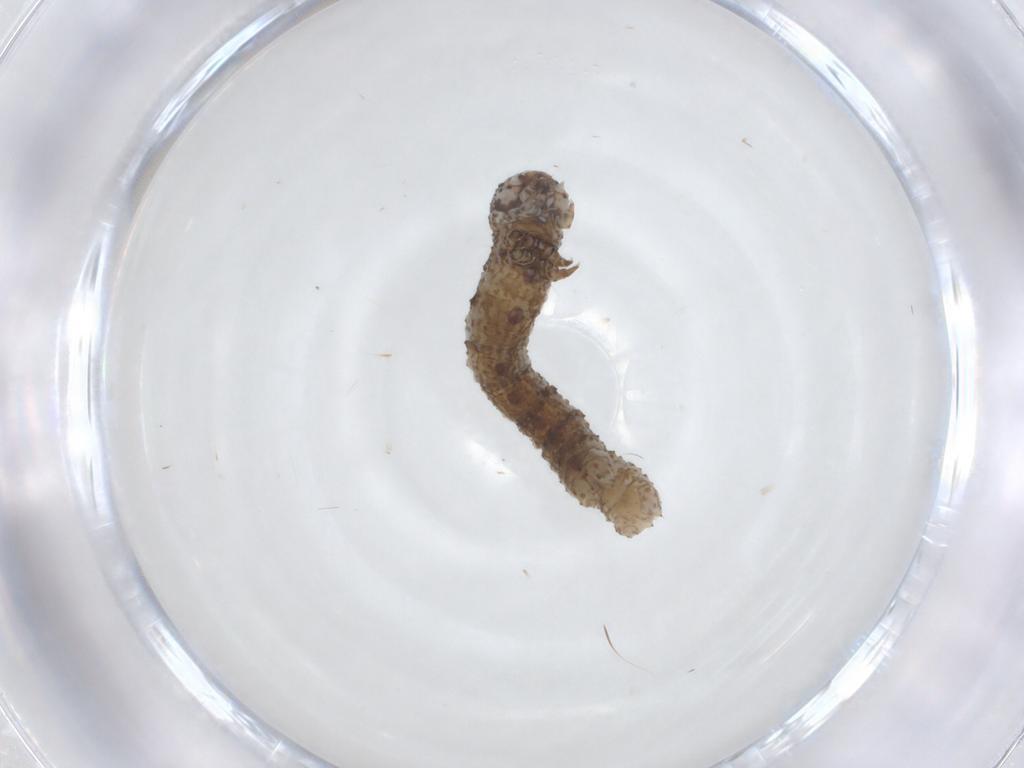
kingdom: Animalia
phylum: Arthropoda
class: Insecta
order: Lepidoptera
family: Geometridae
